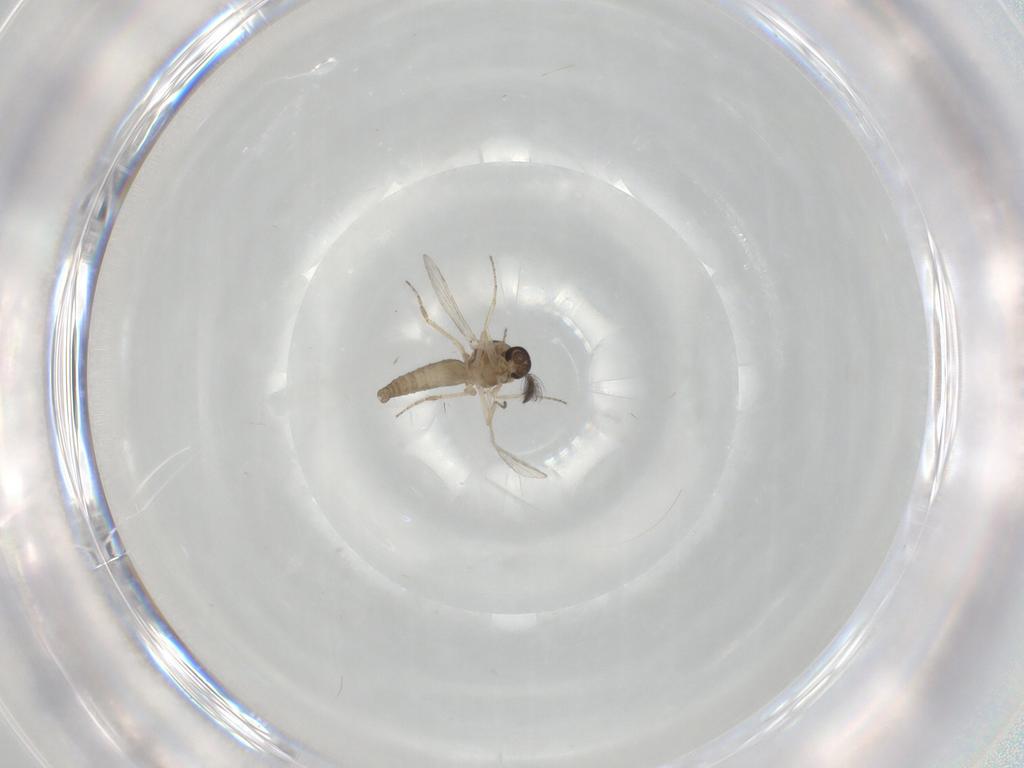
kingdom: Animalia
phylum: Arthropoda
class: Insecta
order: Diptera
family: Ceratopogonidae
